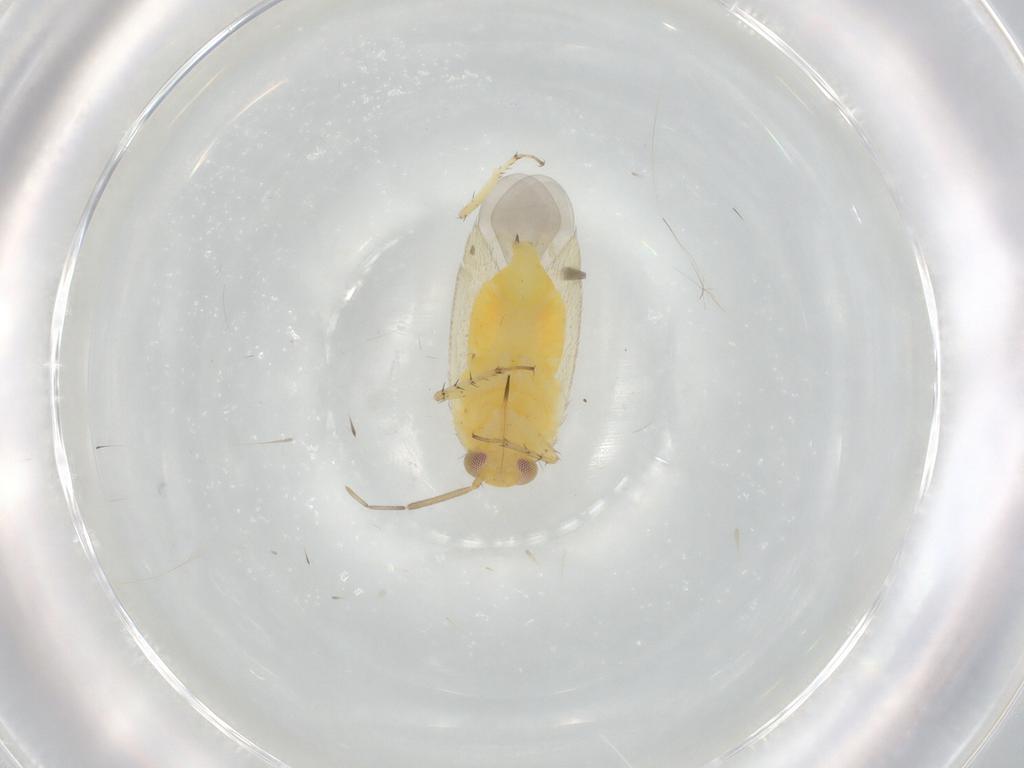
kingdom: Animalia
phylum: Arthropoda
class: Insecta
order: Hemiptera
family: Miridae
